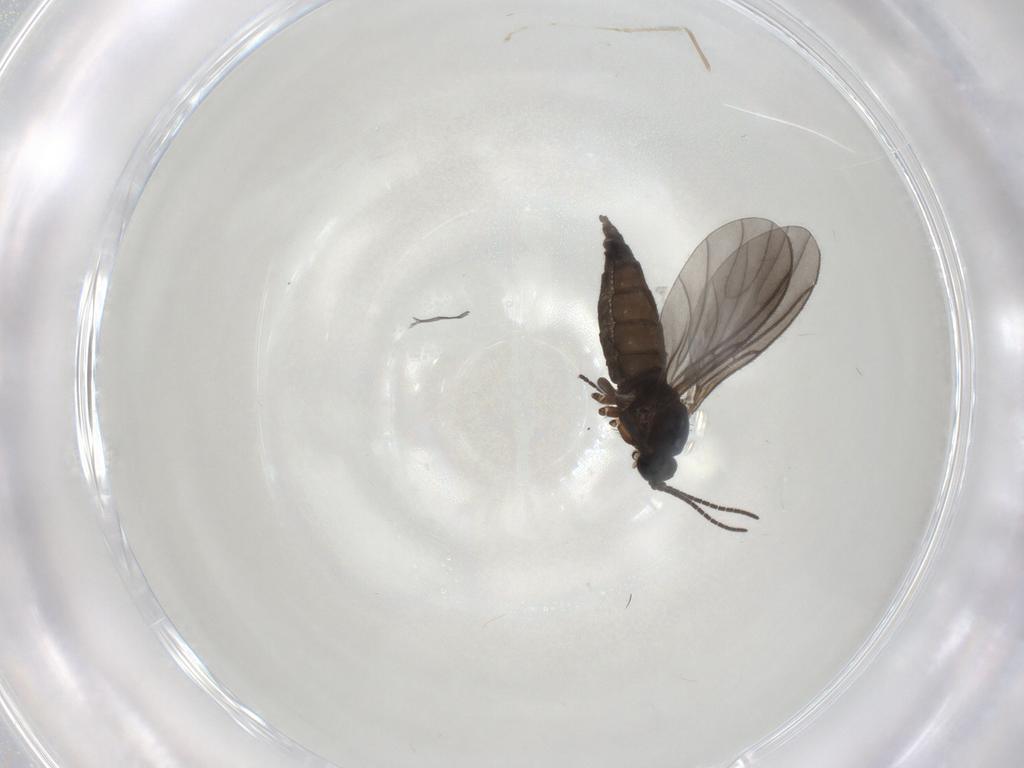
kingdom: Animalia
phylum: Arthropoda
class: Insecta
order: Diptera
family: Sciaridae
